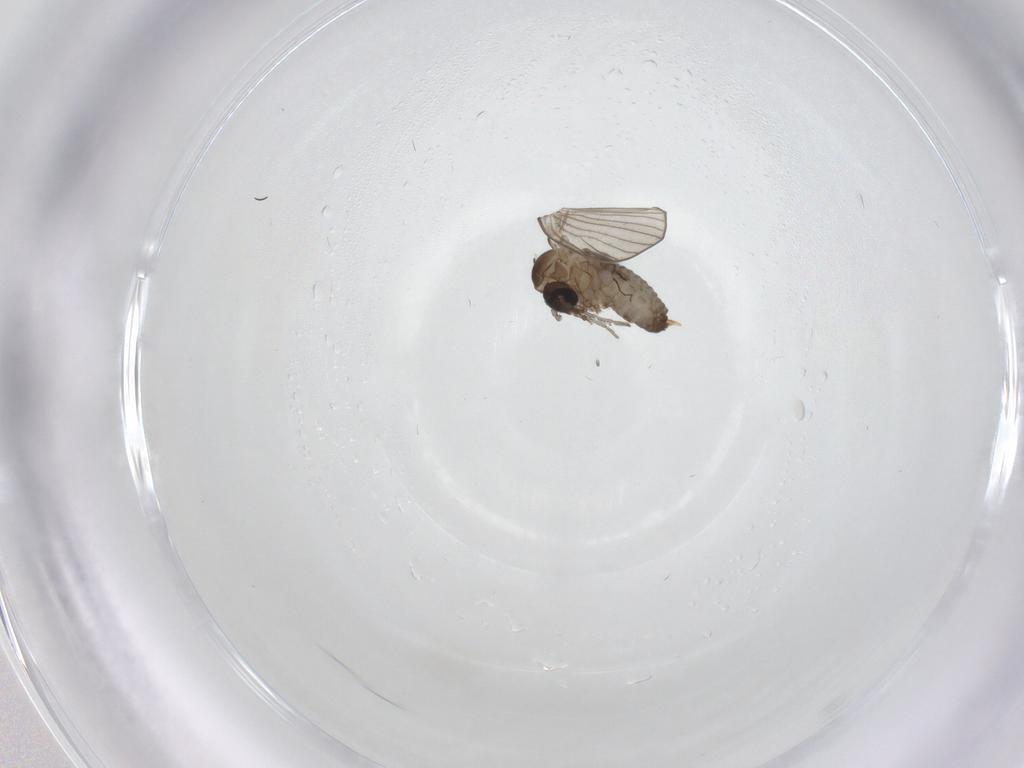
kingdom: Animalia
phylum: Arthropoda
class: Insecta
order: Diptera
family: Psychodidae
